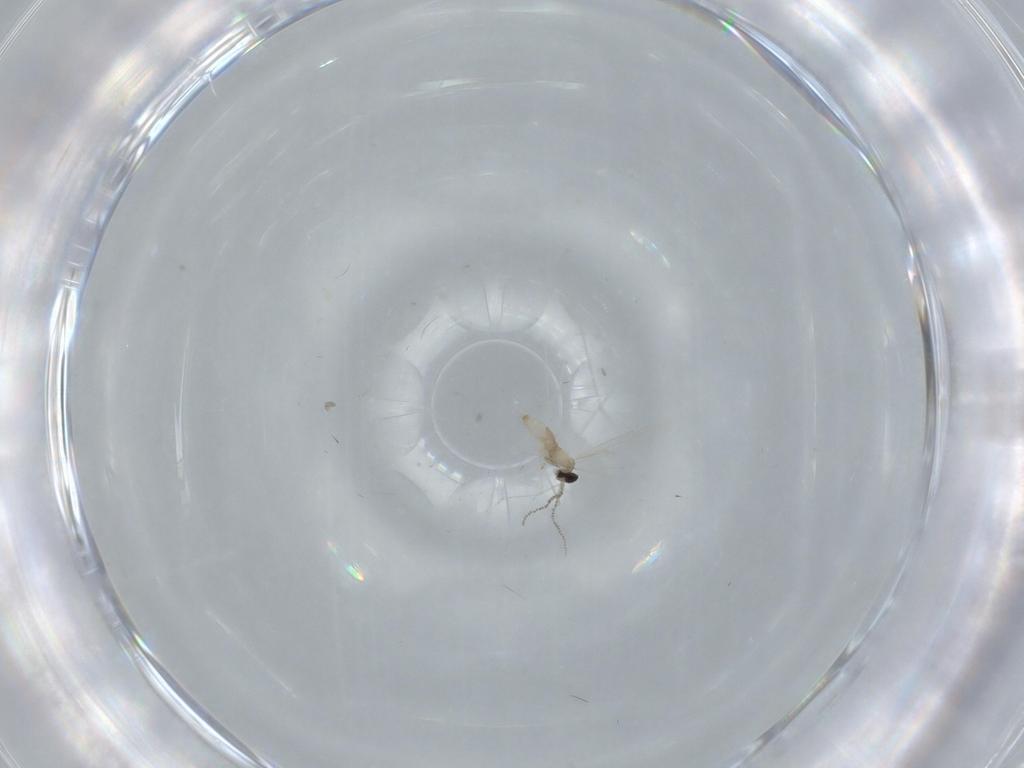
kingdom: Animalia
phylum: Arthropoda
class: Insecta
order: Diptera
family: Cecidomyiidae
